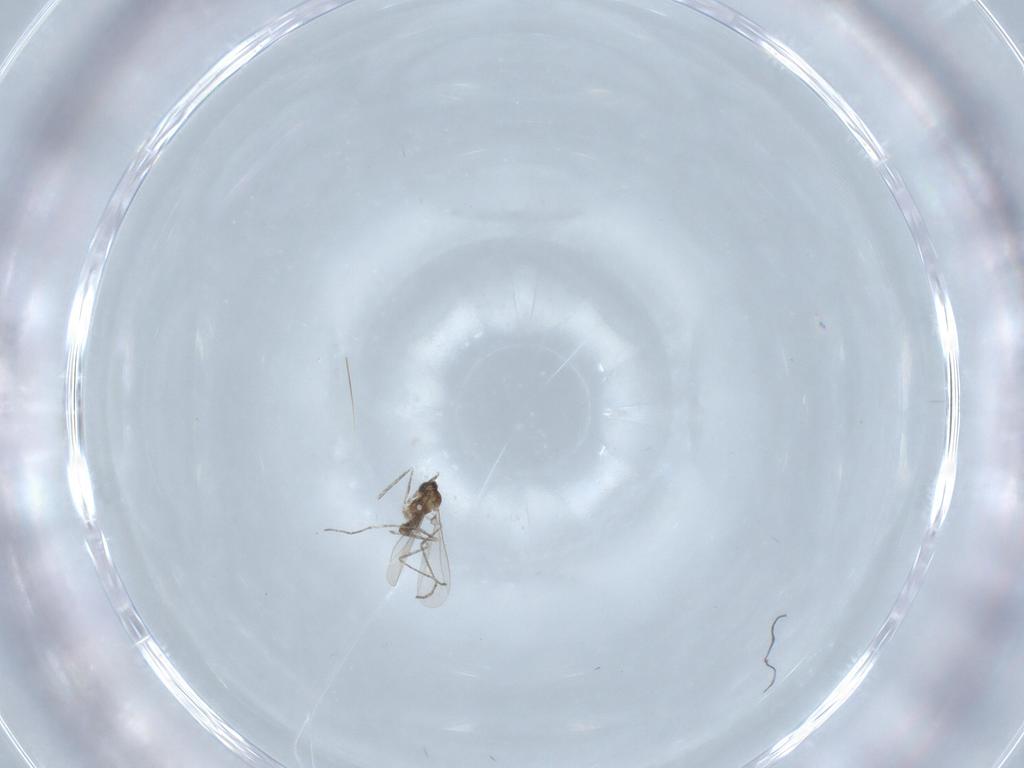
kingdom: Animalia
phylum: Arthropoda
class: Insecta
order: Diptera
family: Cecidomyiidae
